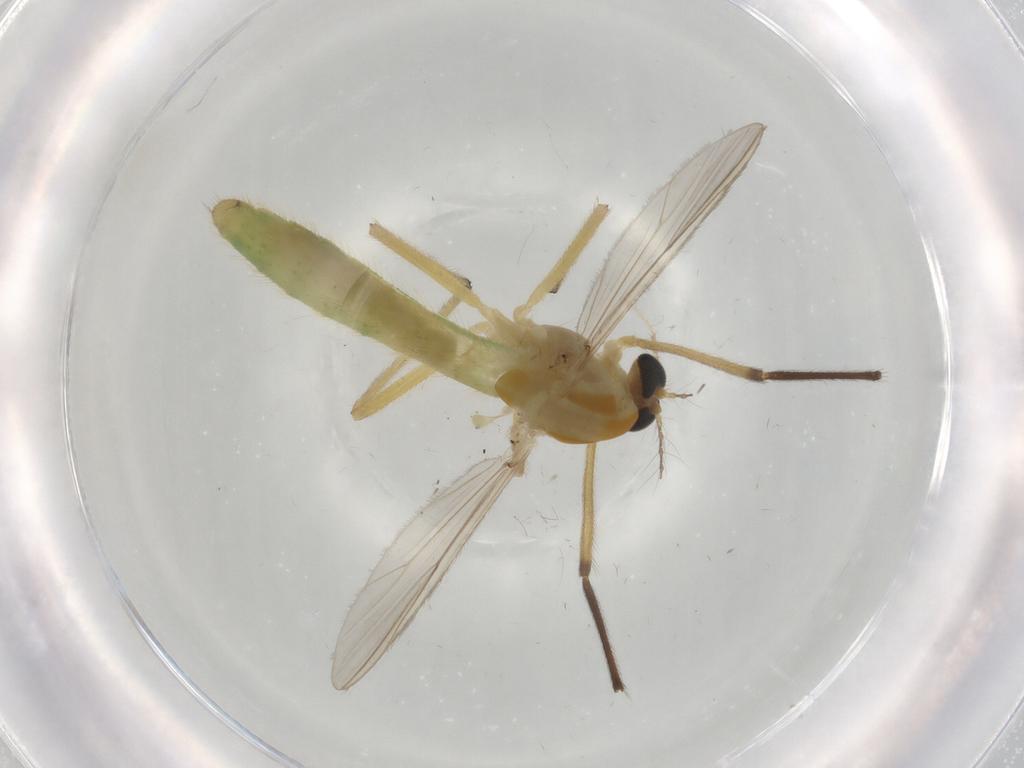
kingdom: Animalia
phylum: Arthropoda
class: Insecta
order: Diptera
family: Chironomidae
